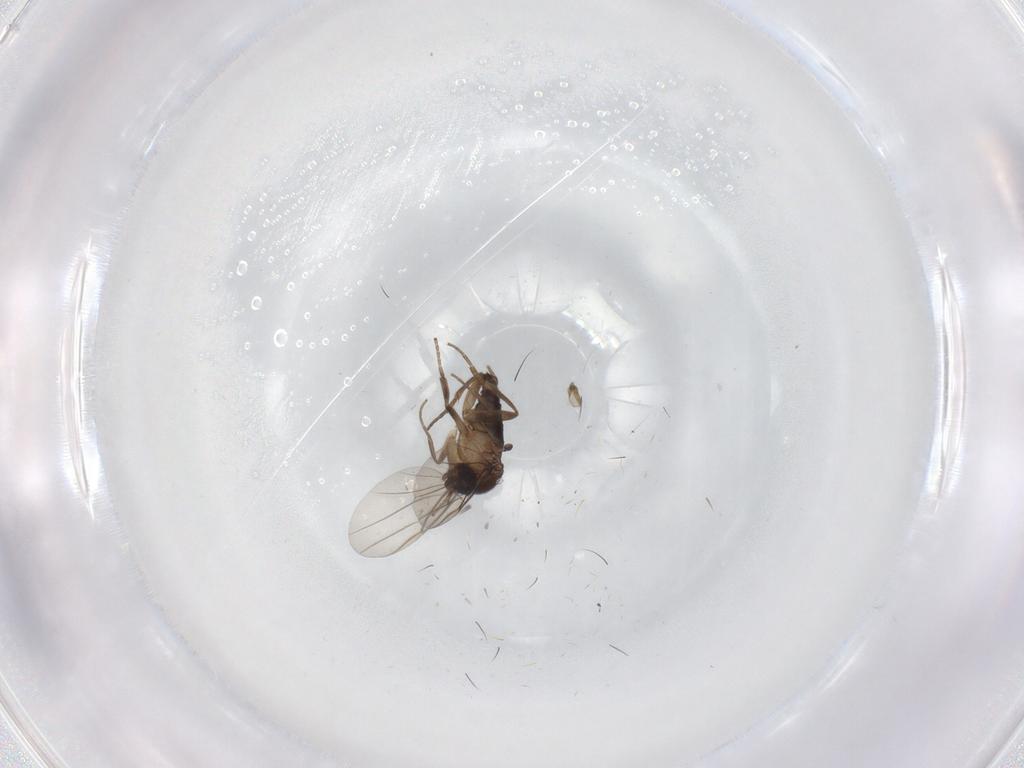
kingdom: Animalia
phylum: Arthropoda
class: Insecta
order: Diptera
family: Phoridae
